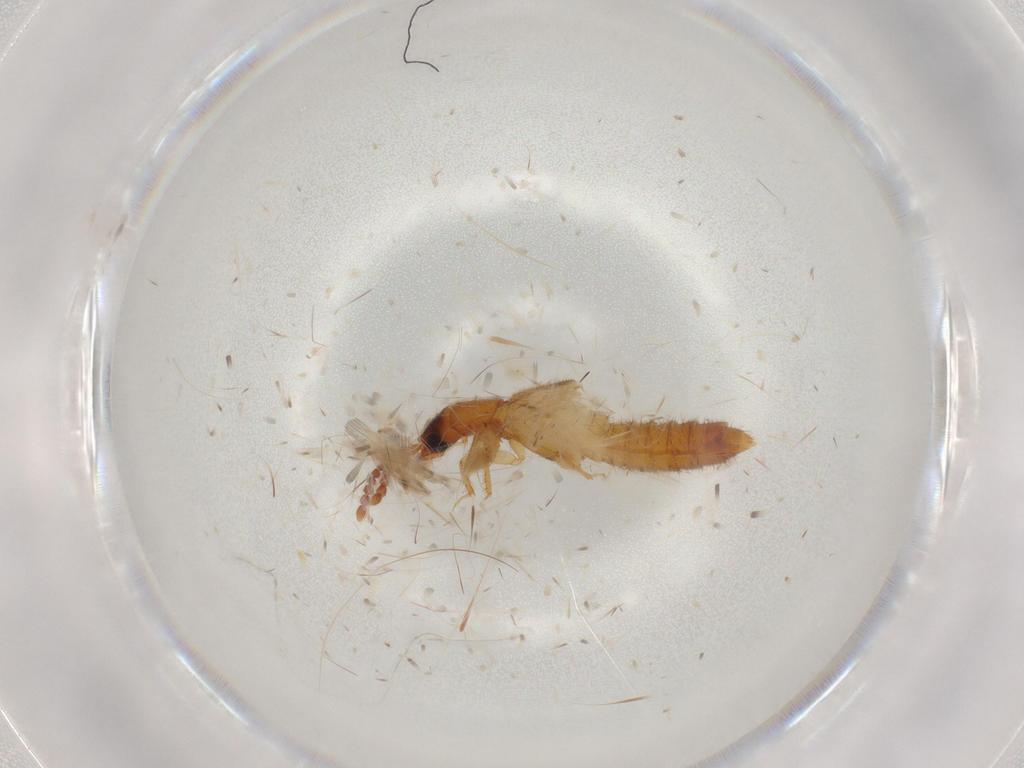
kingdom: Animalia
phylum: Arthropoda
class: Insecta
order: Coleoptera
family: Staphylinidae
